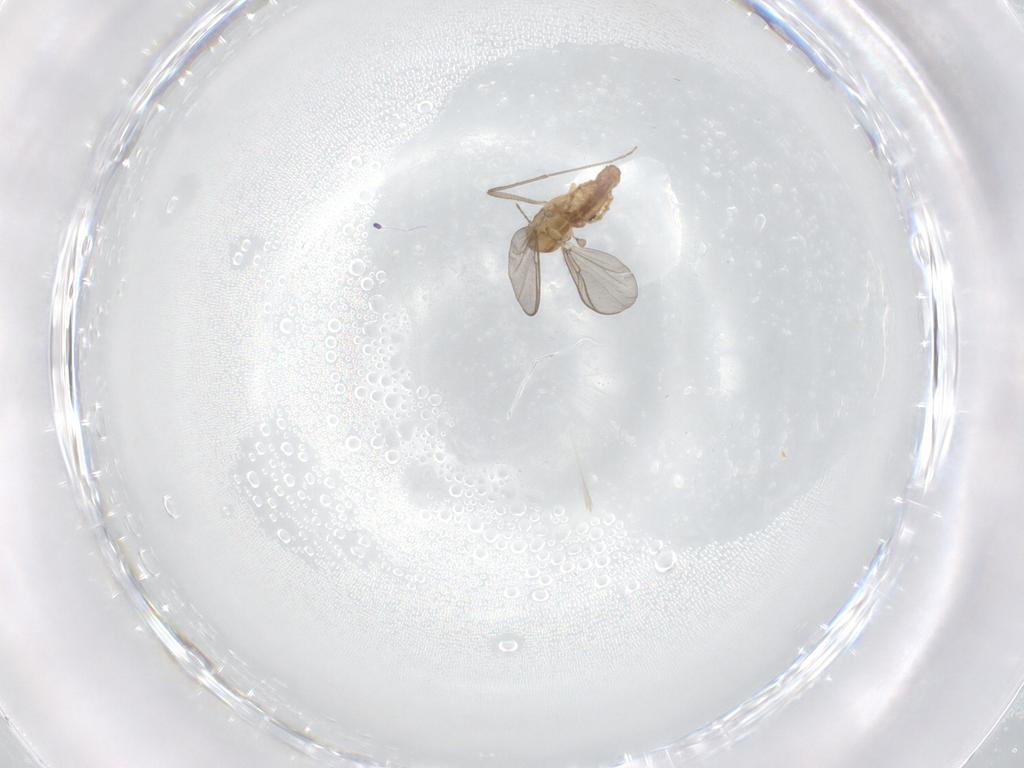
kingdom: Animalia
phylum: Arthropoda
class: Insecta
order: Diptera
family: Chironomidae
